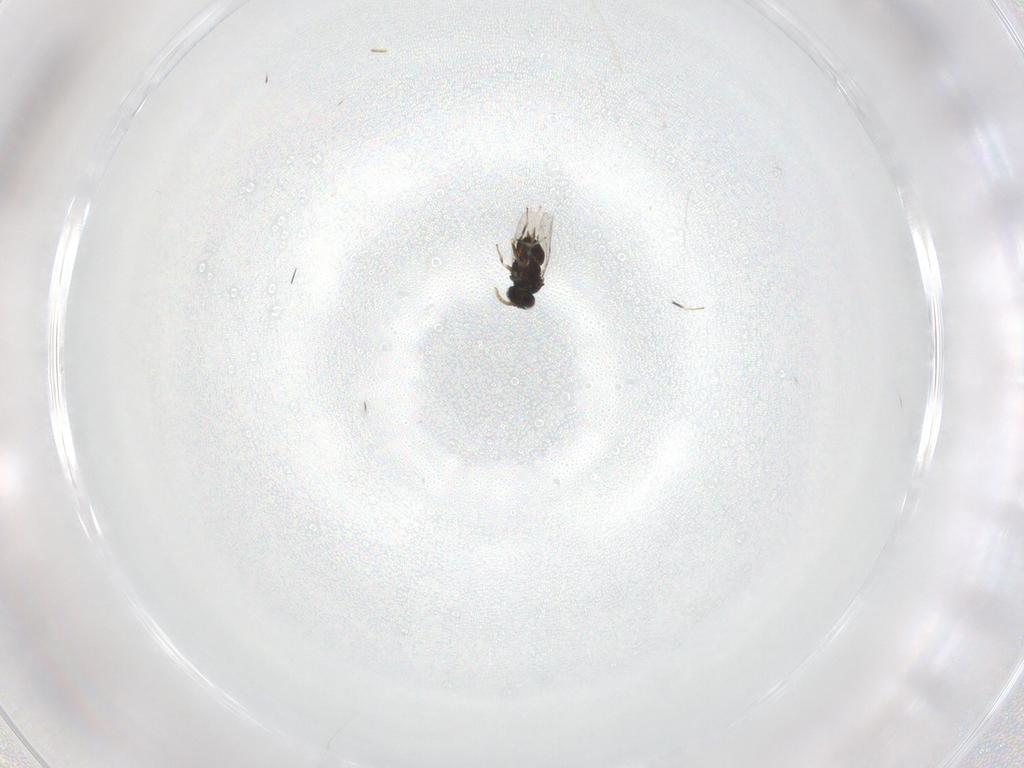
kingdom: Animalia
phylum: Arthropoda
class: Insecta
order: Hymenoptera
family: Encyrtidae
